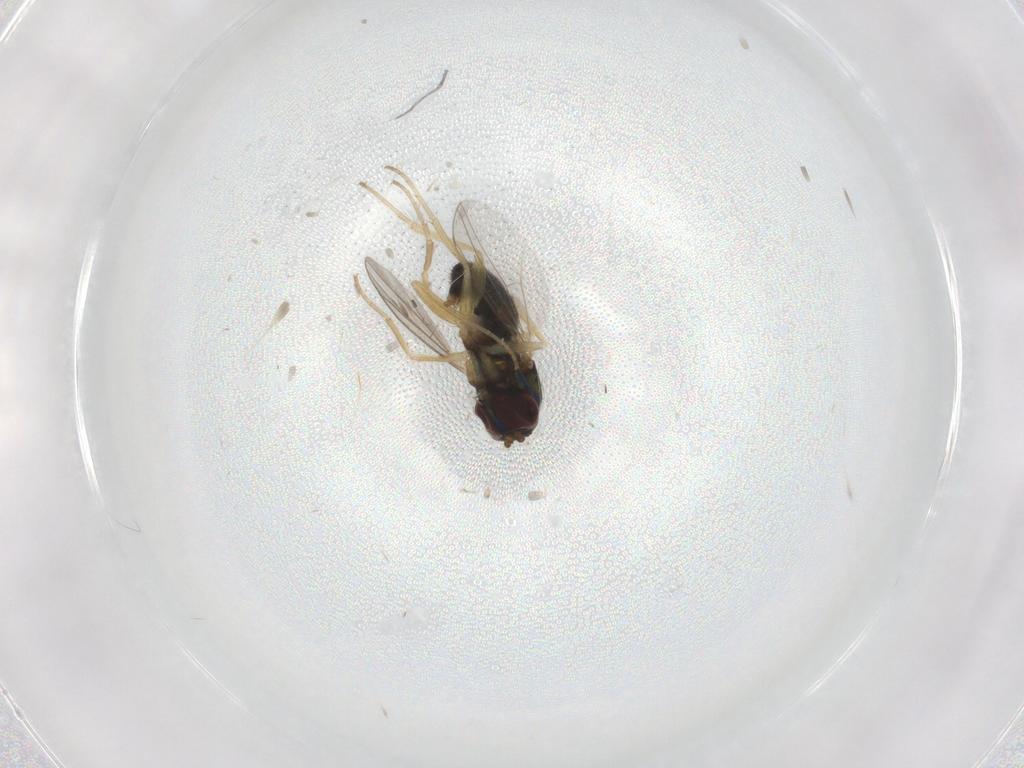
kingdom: Animalia
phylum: Arthropoda
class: Insecta
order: Diptera
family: Dolichopodidae
